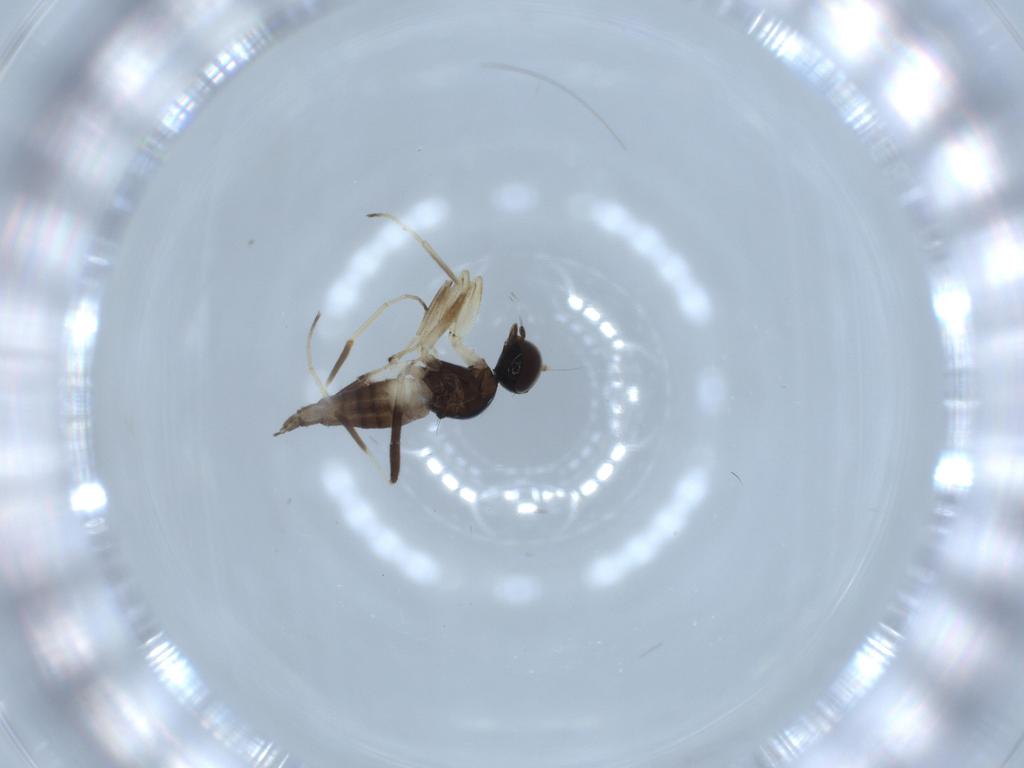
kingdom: Animalia
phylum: Arthropoda
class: Insecta
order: Diptera
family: Hybotidae
